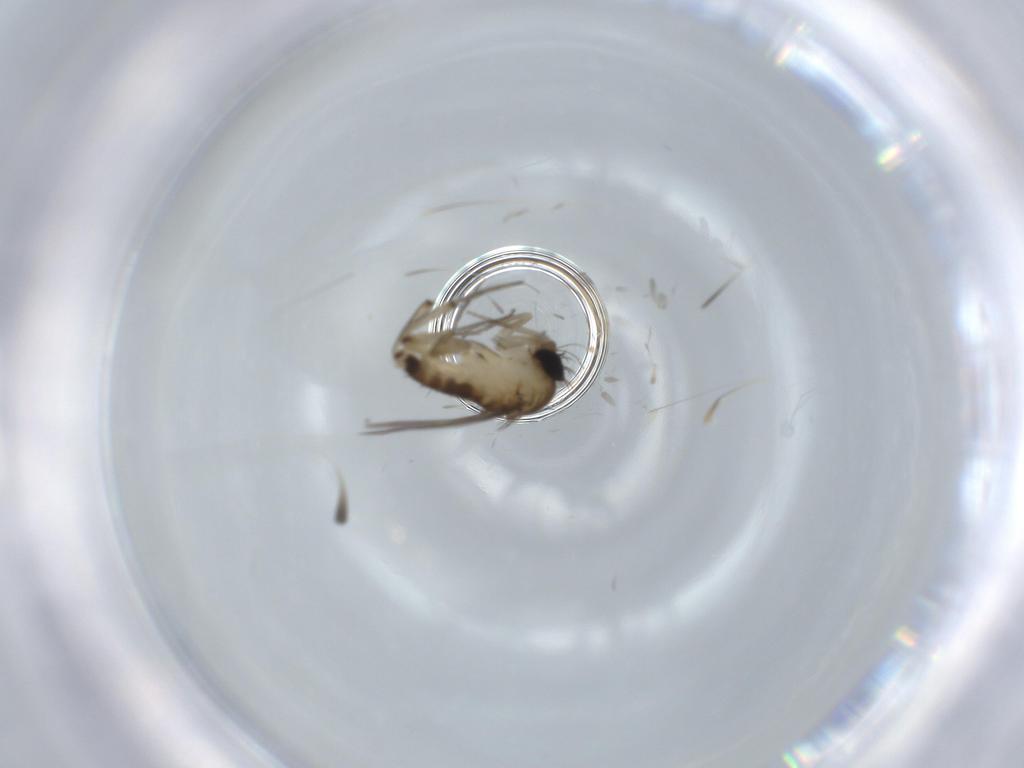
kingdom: Animalia
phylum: Arthropoda
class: Insecta
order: Diptera
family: Phoridae
